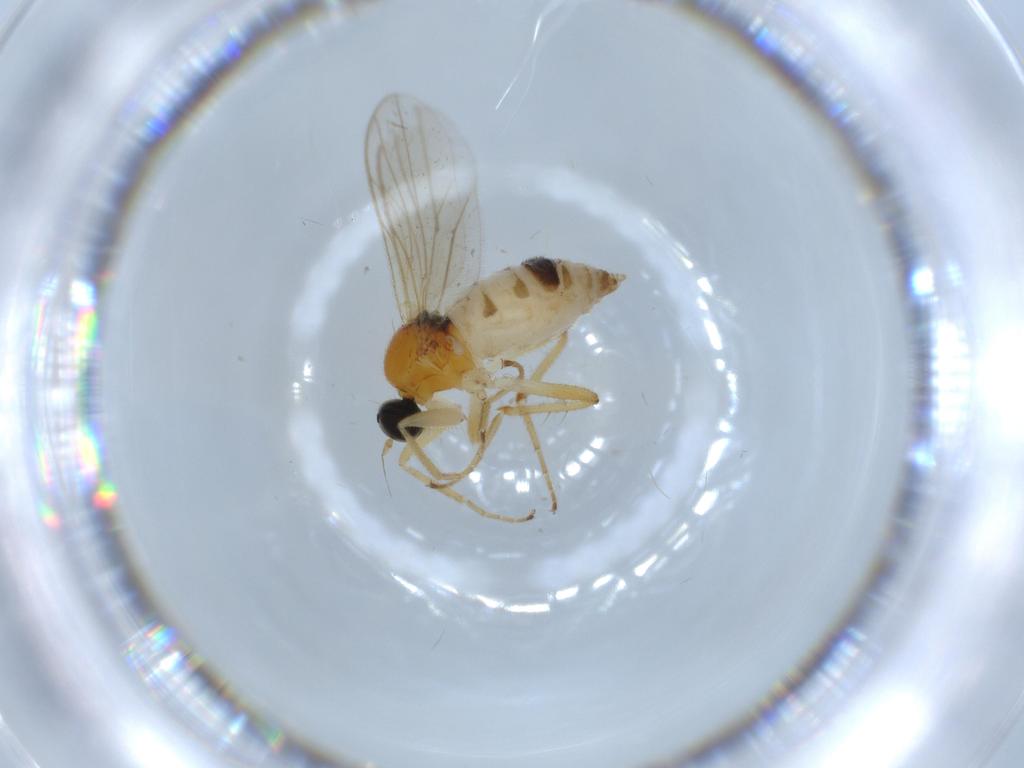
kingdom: Animalia
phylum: Arthropoda
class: Insecta
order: Diptera
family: Hybotidae
